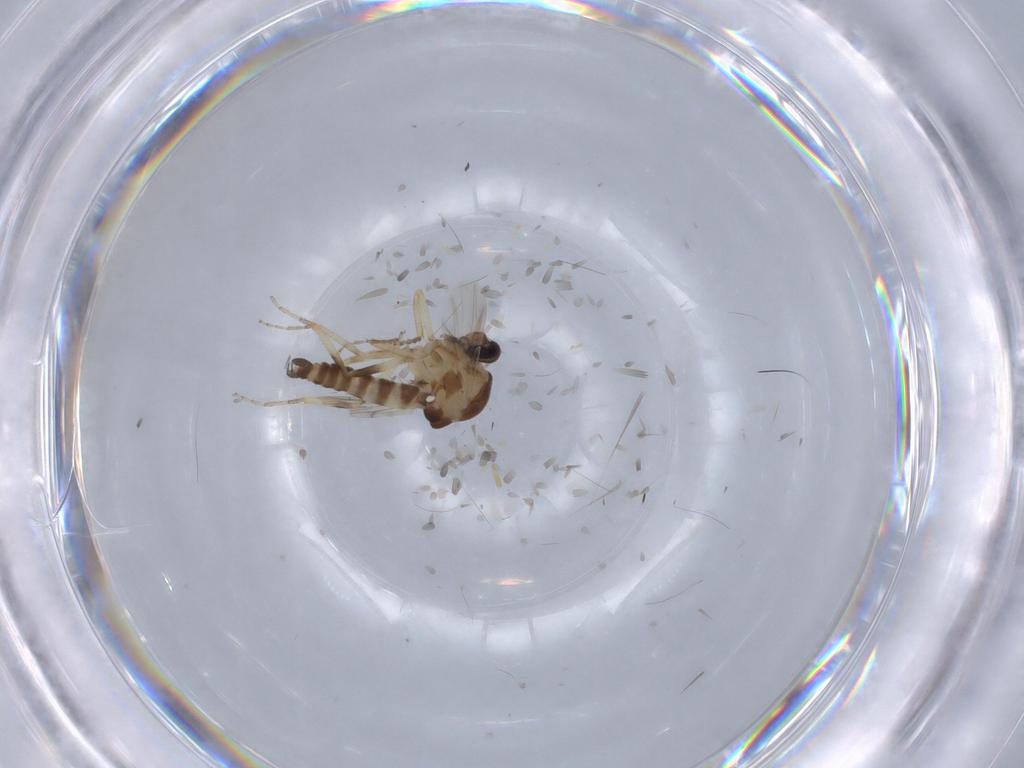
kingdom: Animalia
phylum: Arthropoda
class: Insecta
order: Diptera
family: Ceratopogonidae
